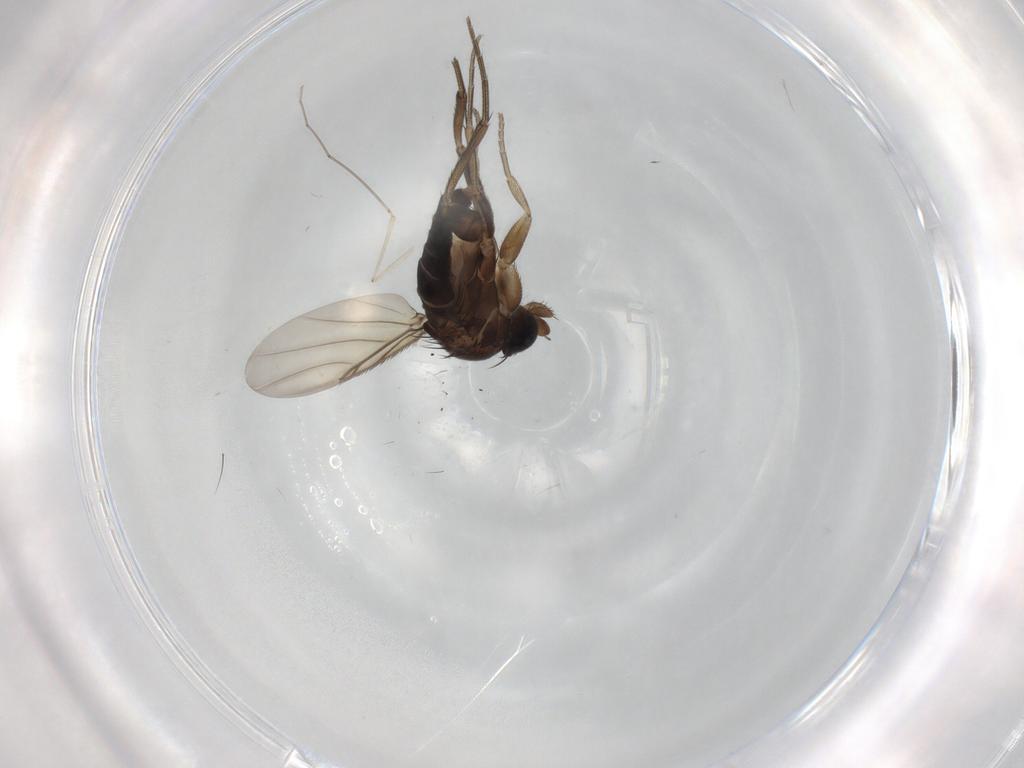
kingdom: Animalia
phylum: Arthropoda
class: Insecta
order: Diptera
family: Phoridae
